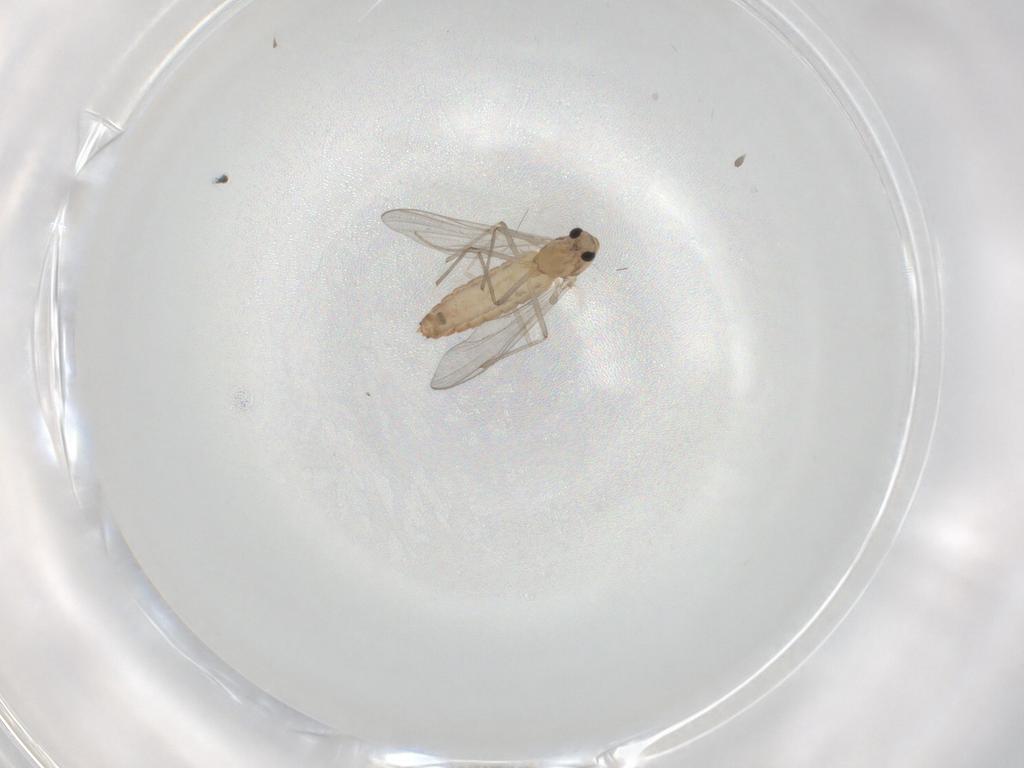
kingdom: Animalia
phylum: Arthropoda
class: Insecta
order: Diptera
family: Chironomidae
